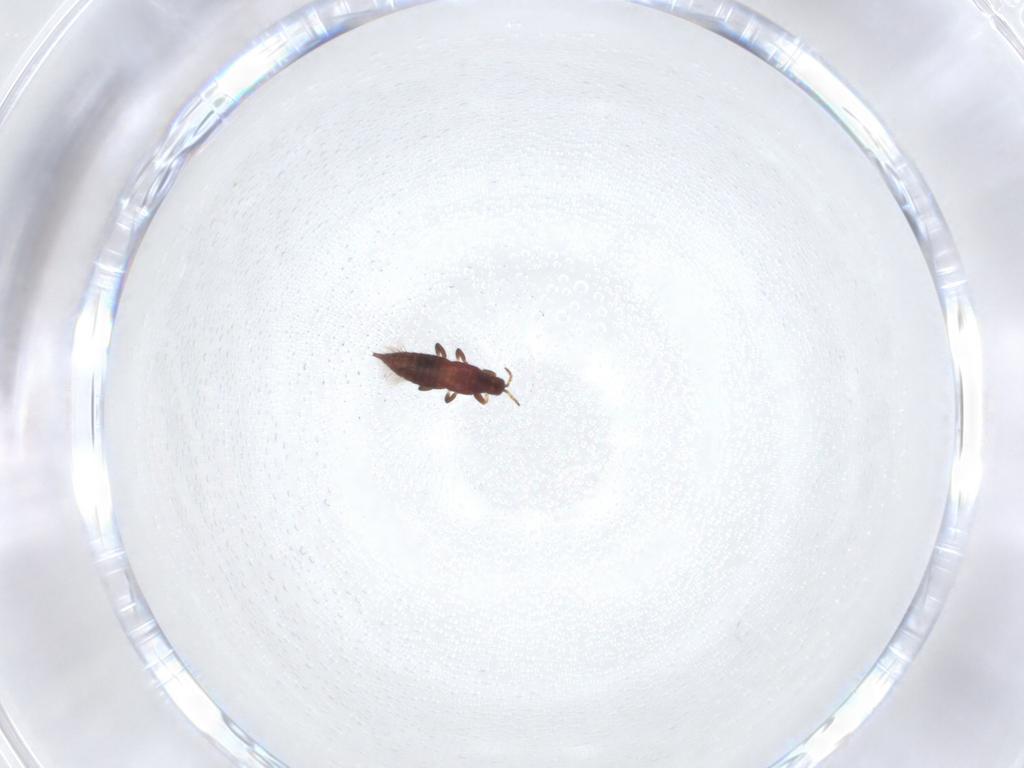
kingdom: Animalia
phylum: Arthropoda
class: Insecta
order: Thysanoptera
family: Phlaeothripidae
